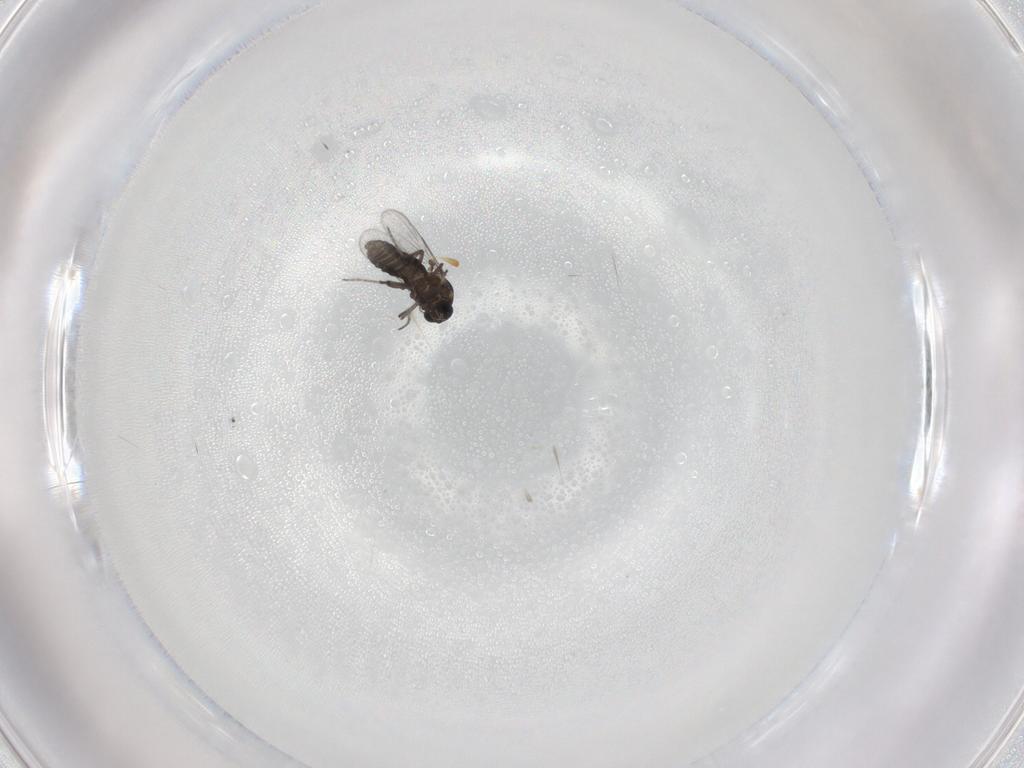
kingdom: Animalia
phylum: Arthropoda
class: Insecta
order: Diptera
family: Ceratopogonidae
